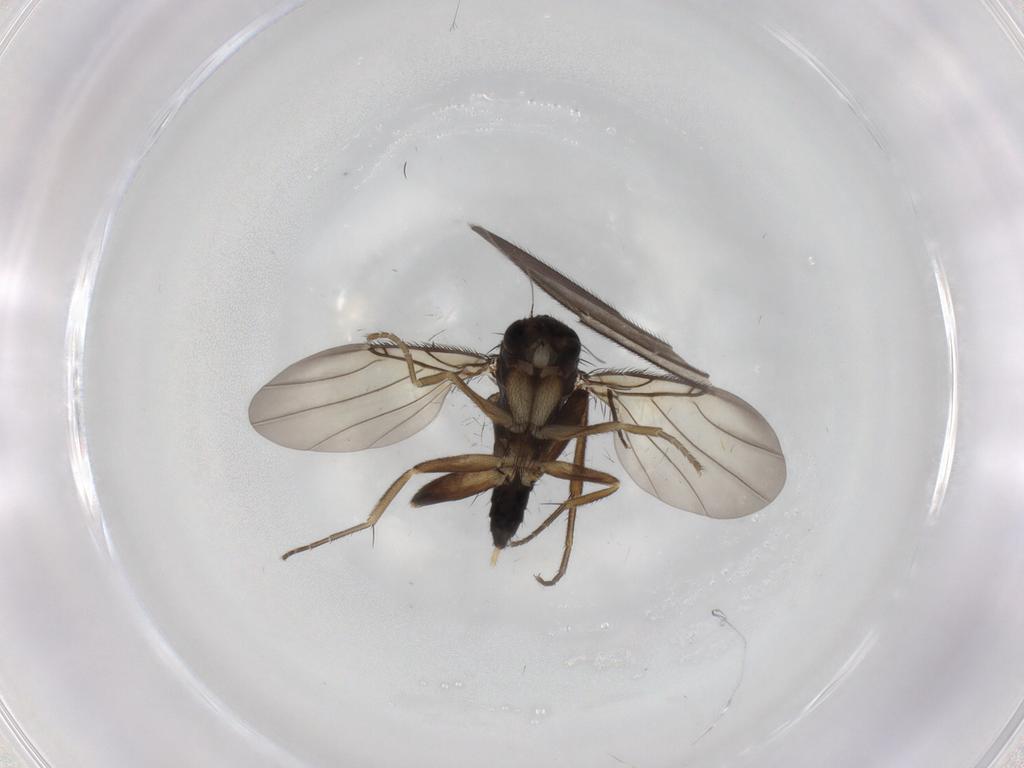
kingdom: Animalia
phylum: Arthropoda
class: Insecta
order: Diptera
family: Phoridae
